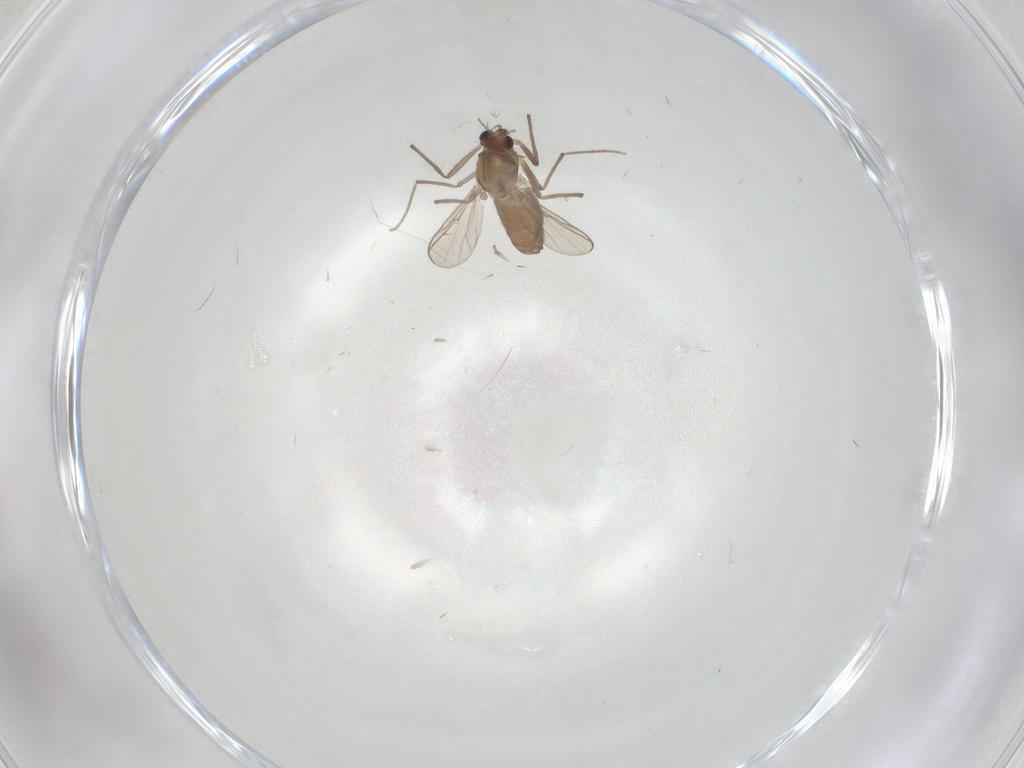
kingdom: Animalia
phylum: Arthropoda
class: Insecta
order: Diptera
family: Chironomidae
